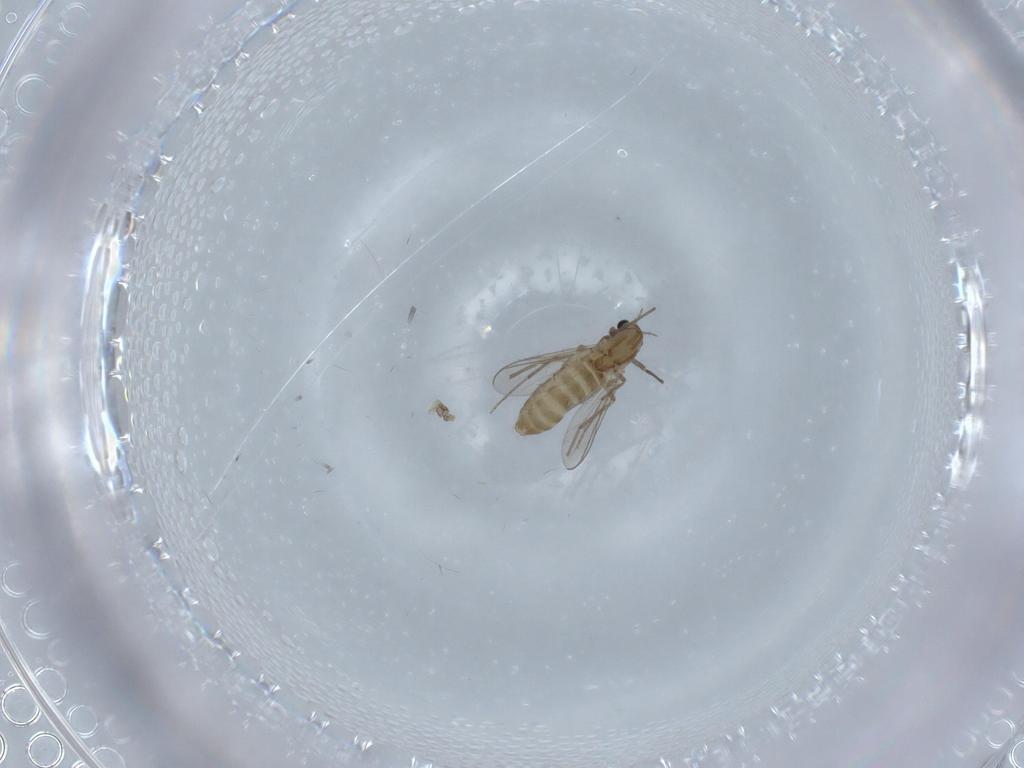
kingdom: Animalia
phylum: Arthropoda
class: Insecta
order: Diptera
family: Chironomidae
